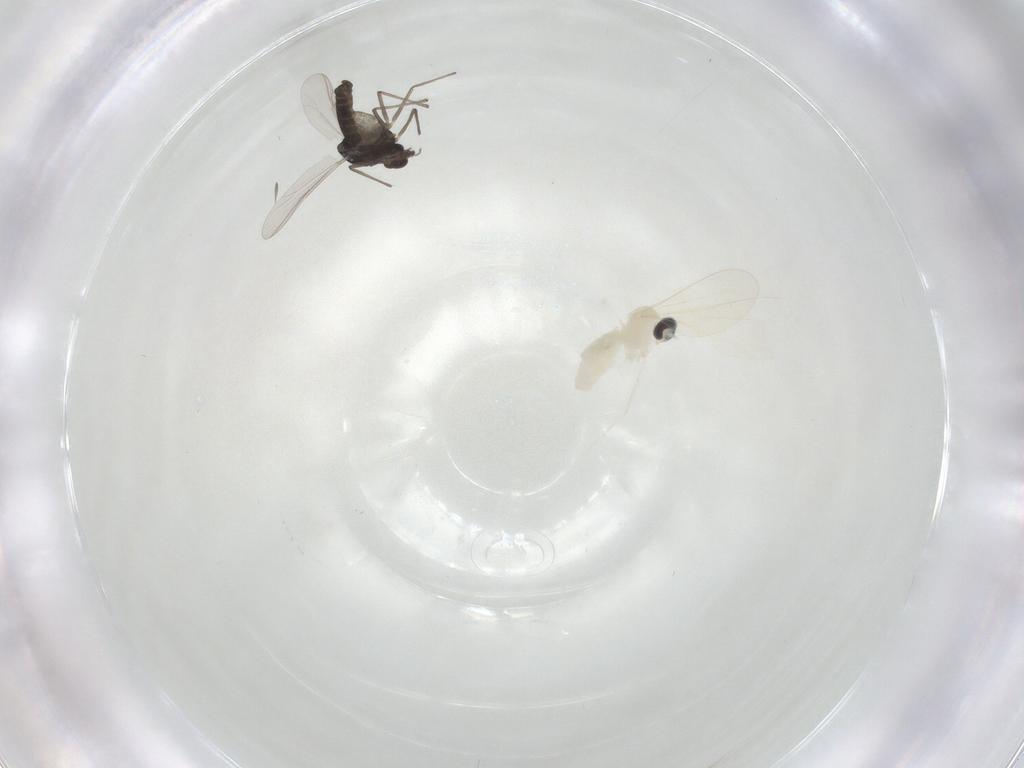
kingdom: Animalia
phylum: Arthropoda
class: Insecta
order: Diptera
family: Cecidomyiidae
